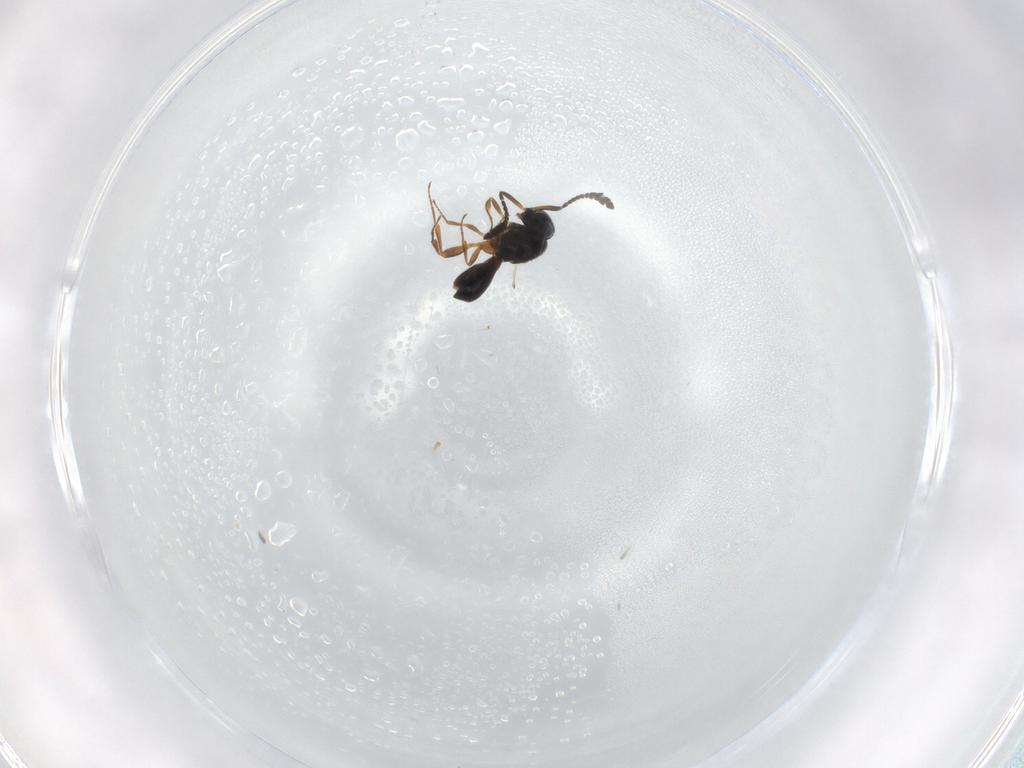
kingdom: Animalia
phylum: Arthropoda
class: Insecta
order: Hymenoptera
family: Scelionidae
